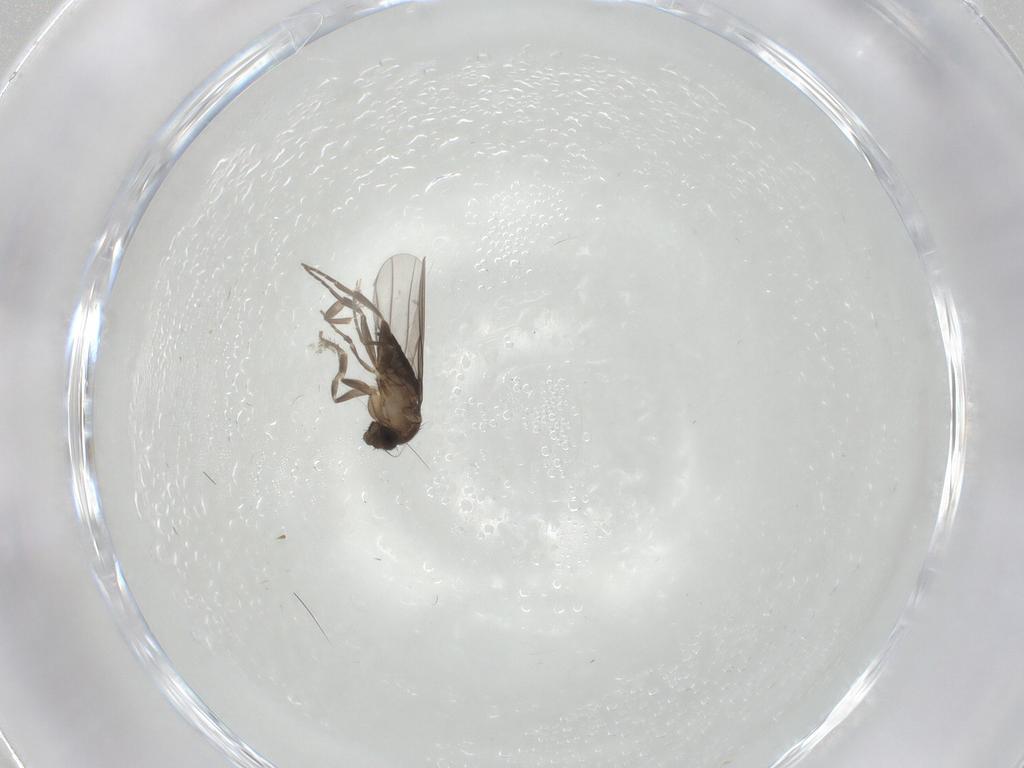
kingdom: Animalia
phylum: Arthropoda
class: Insecta
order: Diptera
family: Phoridae
